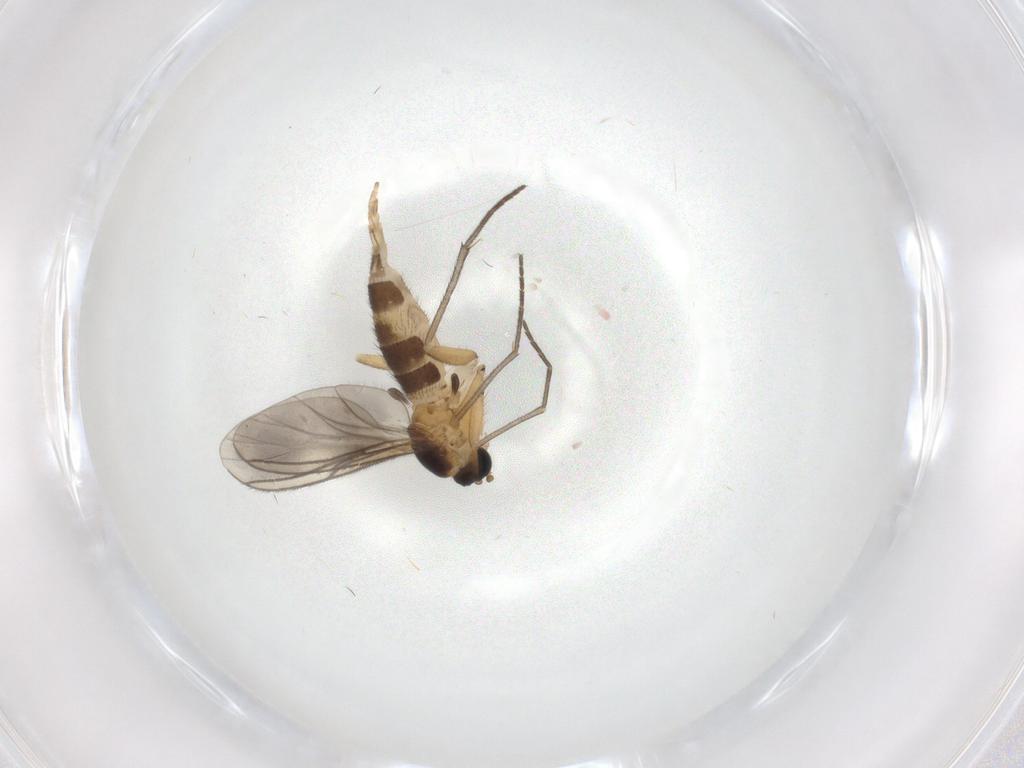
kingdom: Animalia
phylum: Arthropoda
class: Insecta
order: Diptera
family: Sciaridae
